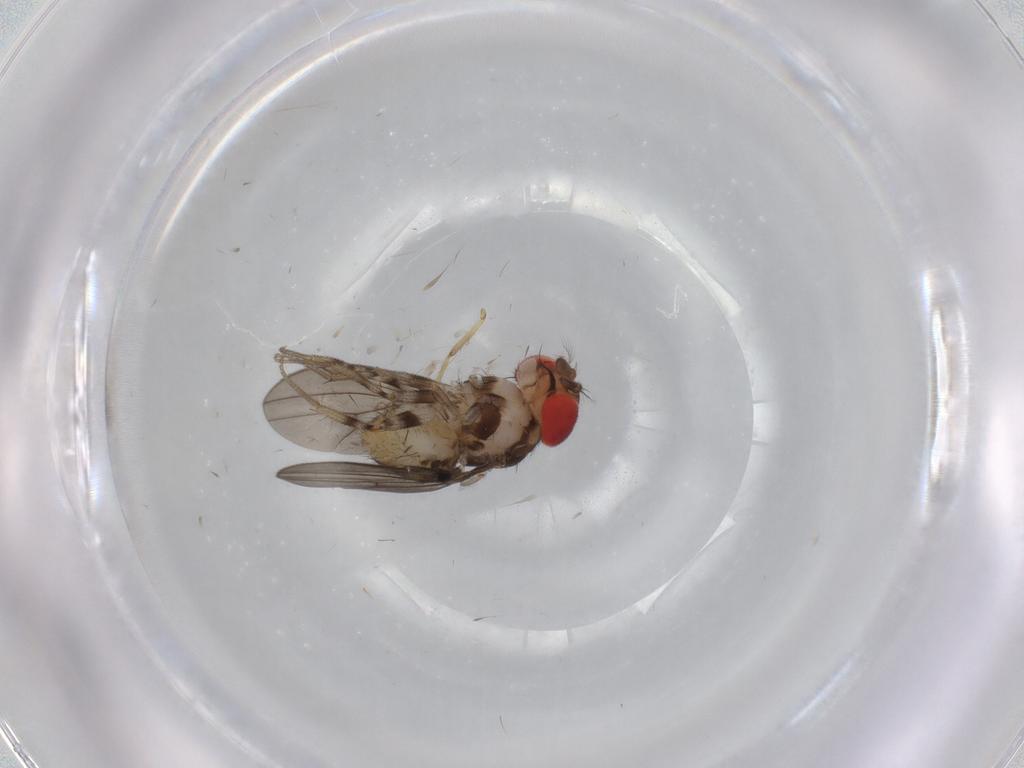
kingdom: Animalia
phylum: Arthropoda
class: Insecta
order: Diptera
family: Drosophilidae
